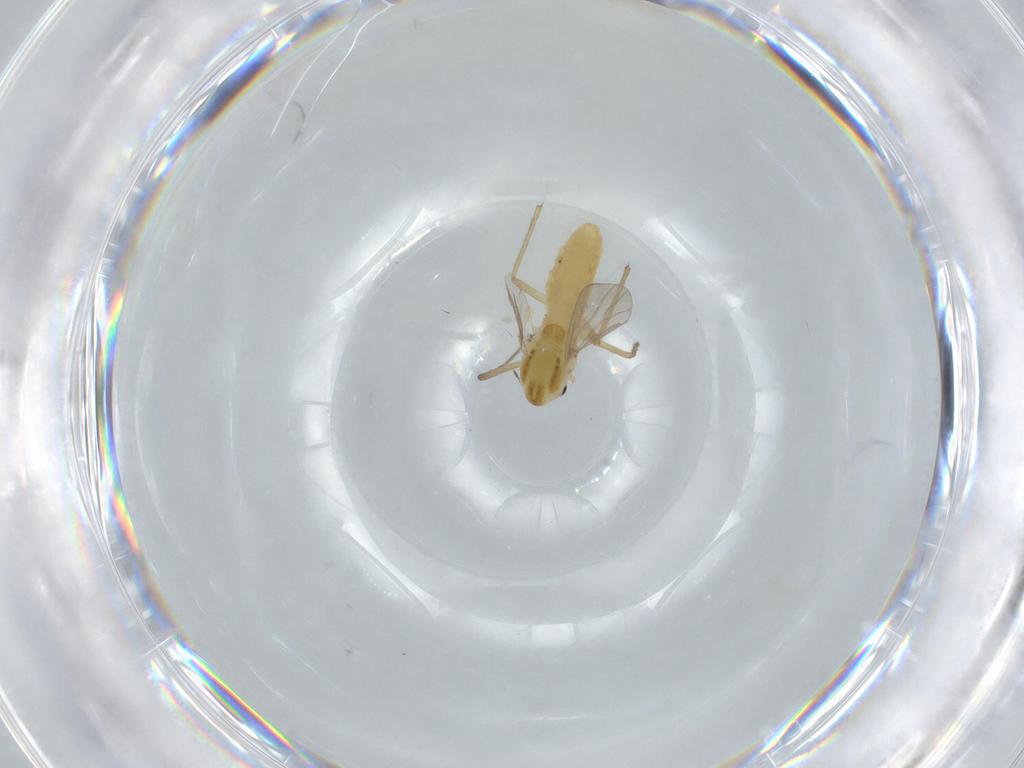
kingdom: Animalia
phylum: Arthropoda
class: Insecta
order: Diptera
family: Chironomidae
